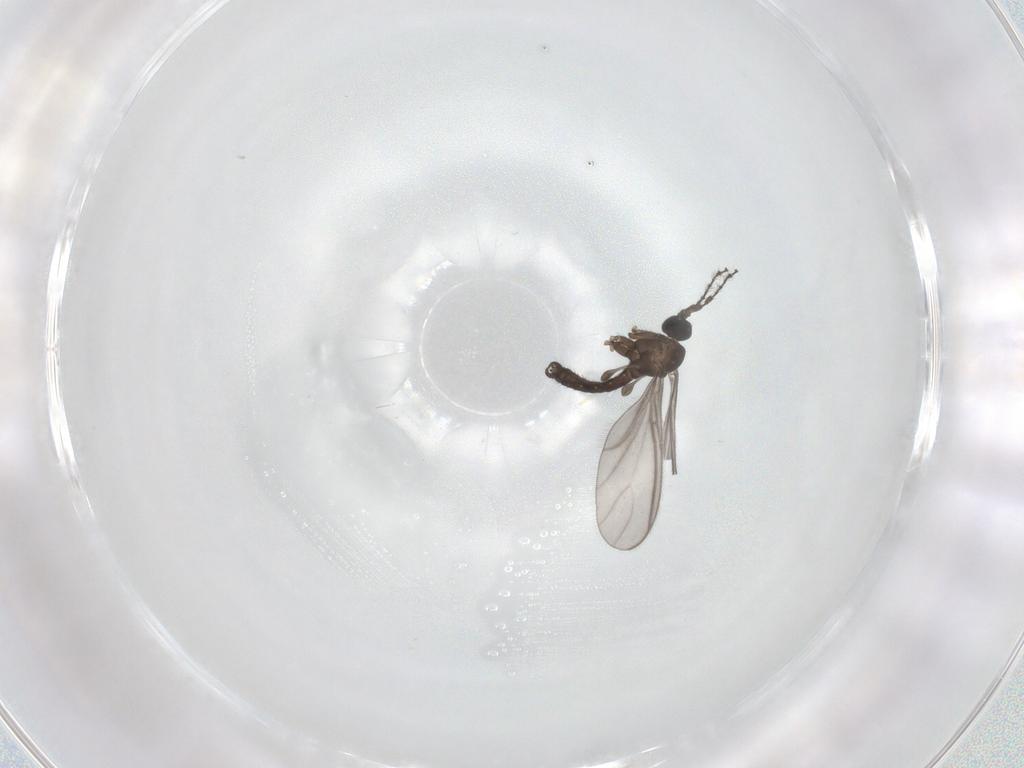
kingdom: Animalia
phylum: Arthropoda
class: Insecta
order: Diptera
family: Sciaridae
